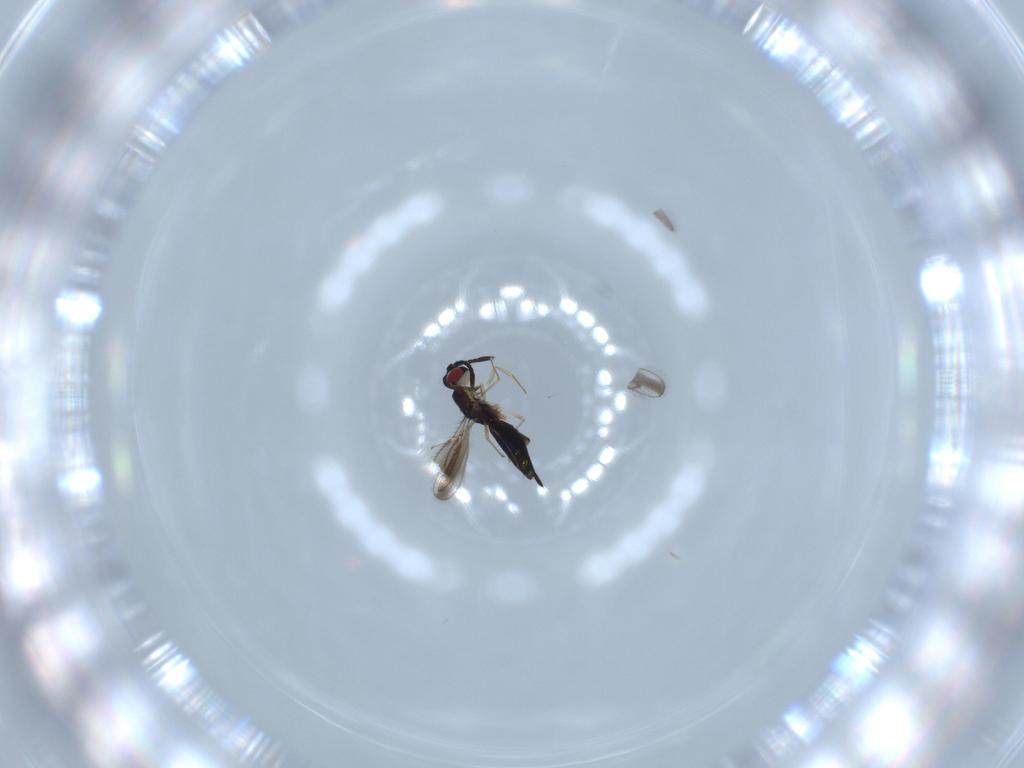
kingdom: Animalia
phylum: Arthropoda
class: Insecta
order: Hymenoptera
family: Pteromalidae
